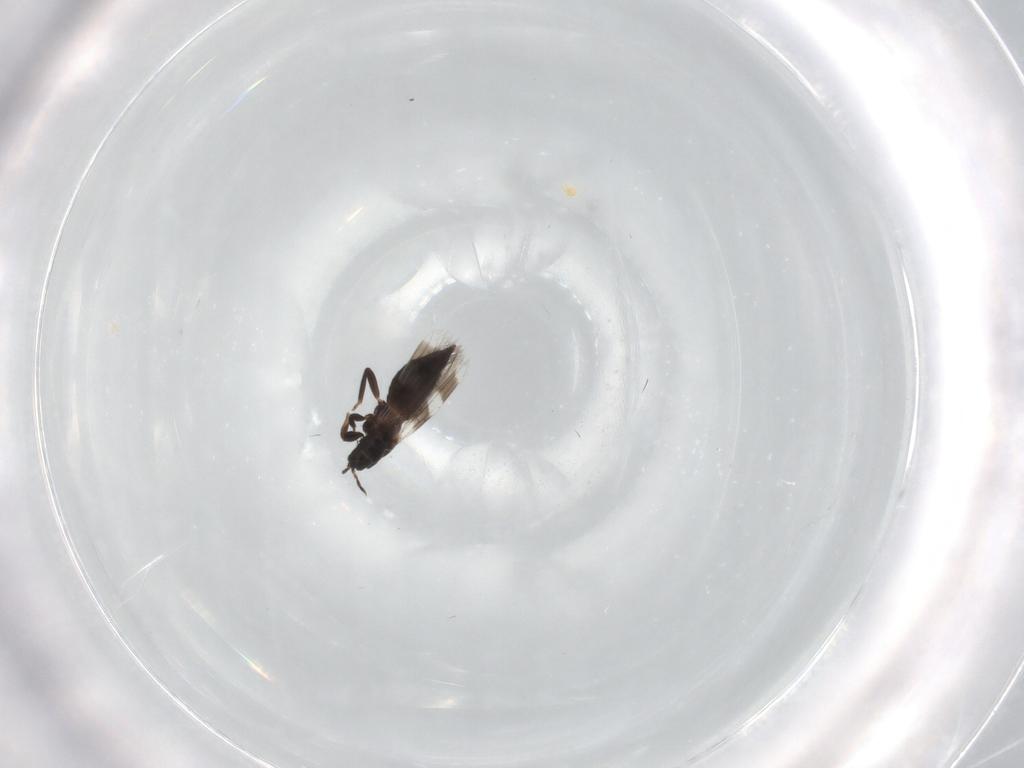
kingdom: Animalia
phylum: Arthropoda
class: Insecta
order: Thysanoptera
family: Aeolothripidae
